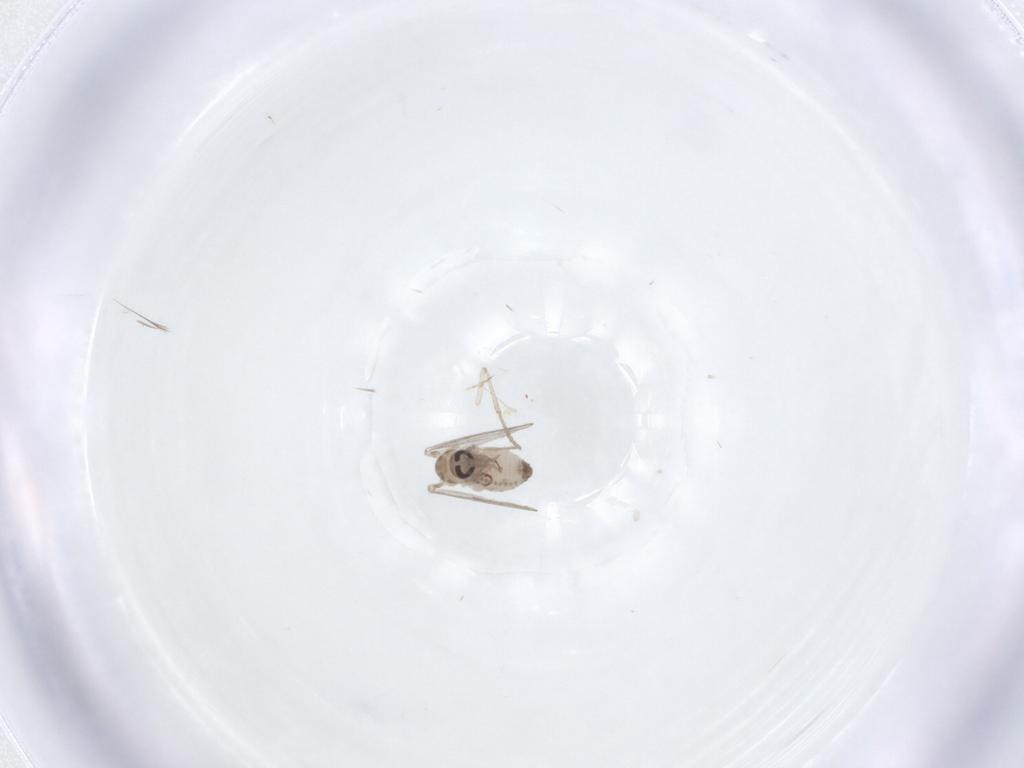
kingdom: Animalia
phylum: Arthropoda
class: Insecta
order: Diptera
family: Psychodidae
